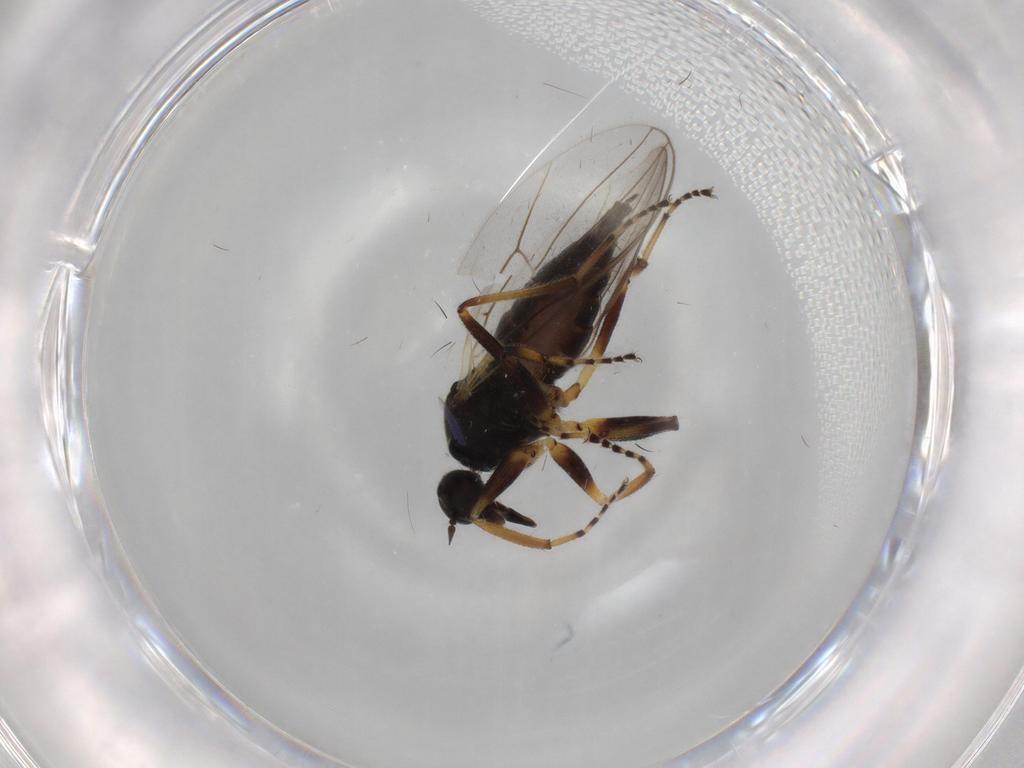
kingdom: Animalia
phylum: Arthropoda
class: Insecta
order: Diptera
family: Hybotidae
